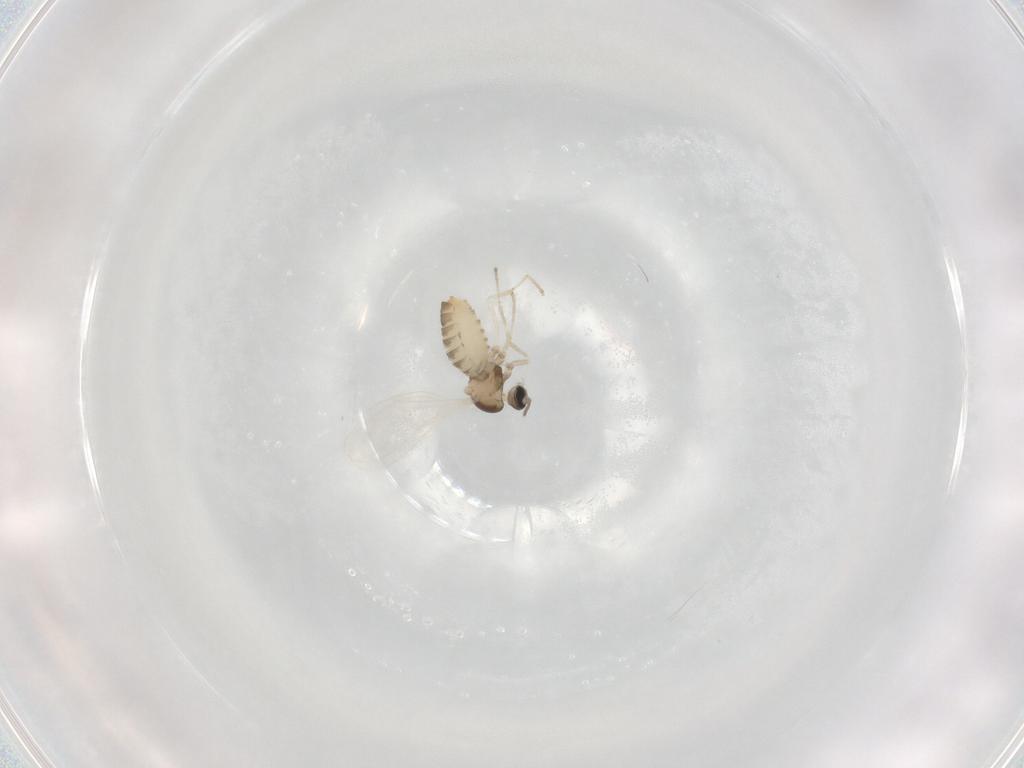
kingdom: Animalia
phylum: Arthropoda
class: Insecta
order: Diptera
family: Cecidomyiidae
